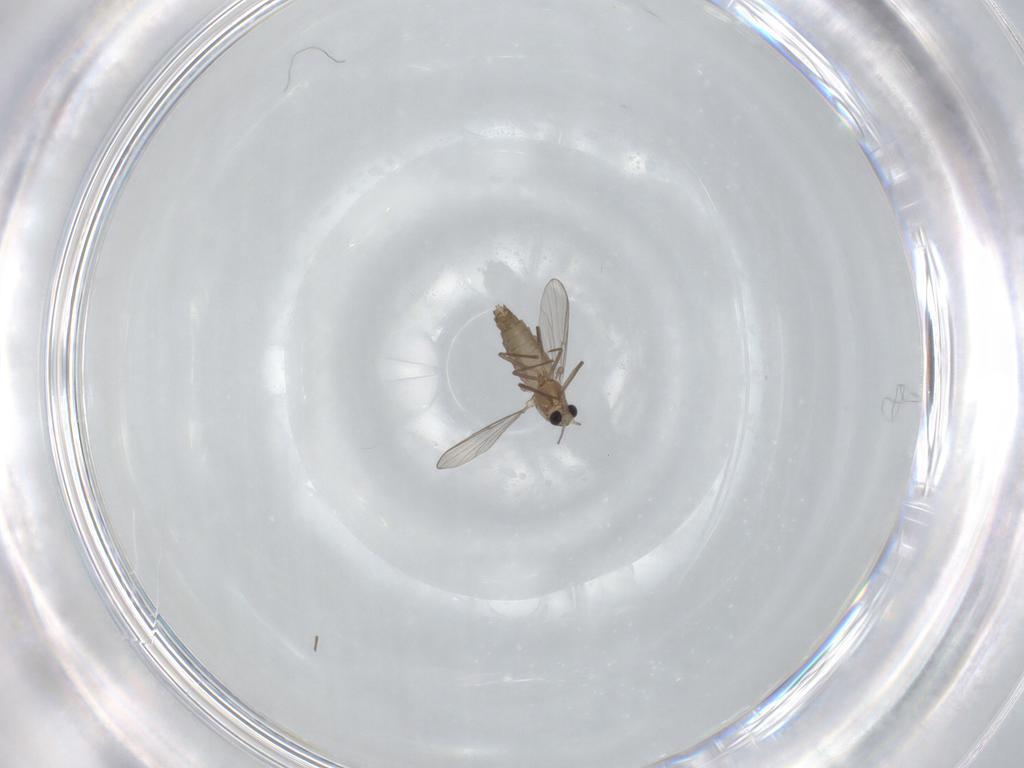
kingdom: Animalia
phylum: Arthropoda
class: Insecta
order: Diptera
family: Chironomidae
